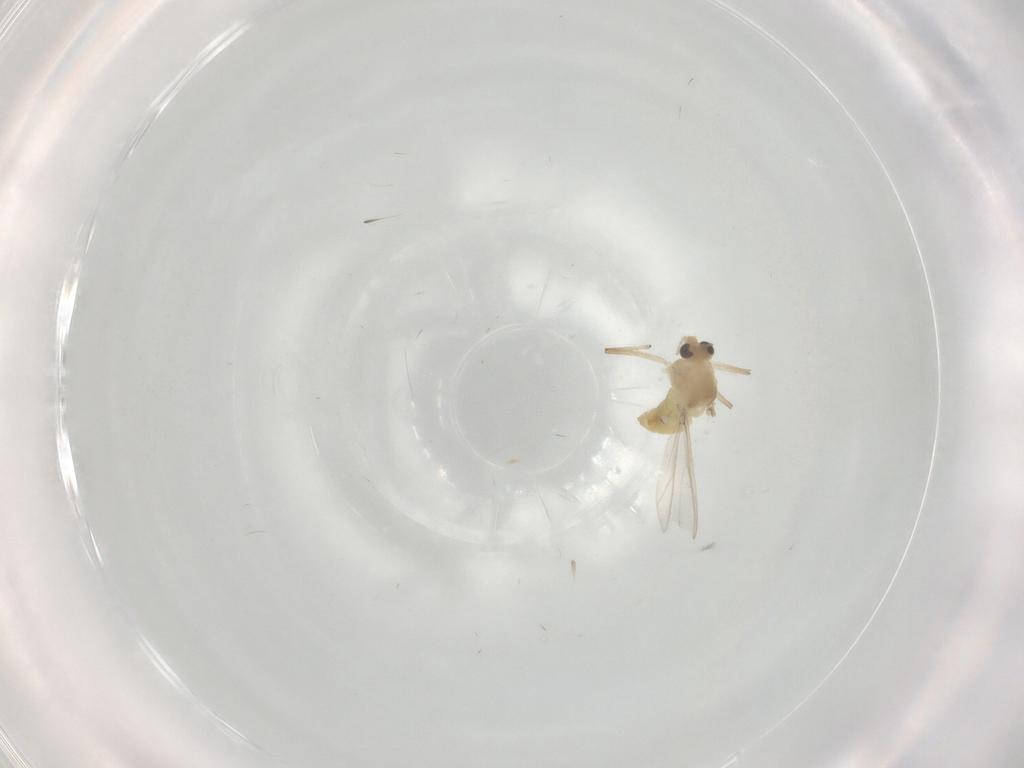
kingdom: Animalia
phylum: Arthropoda
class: Insecta
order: Diptera
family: Chironomidae
